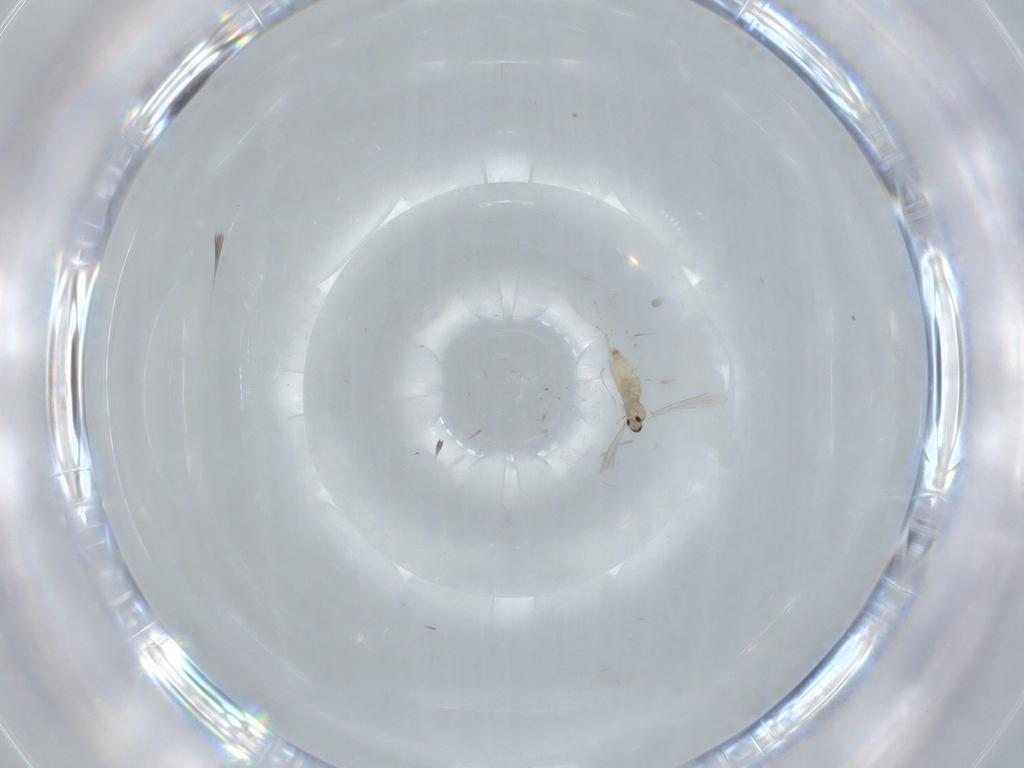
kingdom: Animalia
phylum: Arthropoda
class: Insecta
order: Diptera
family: Cecidomyiidae
